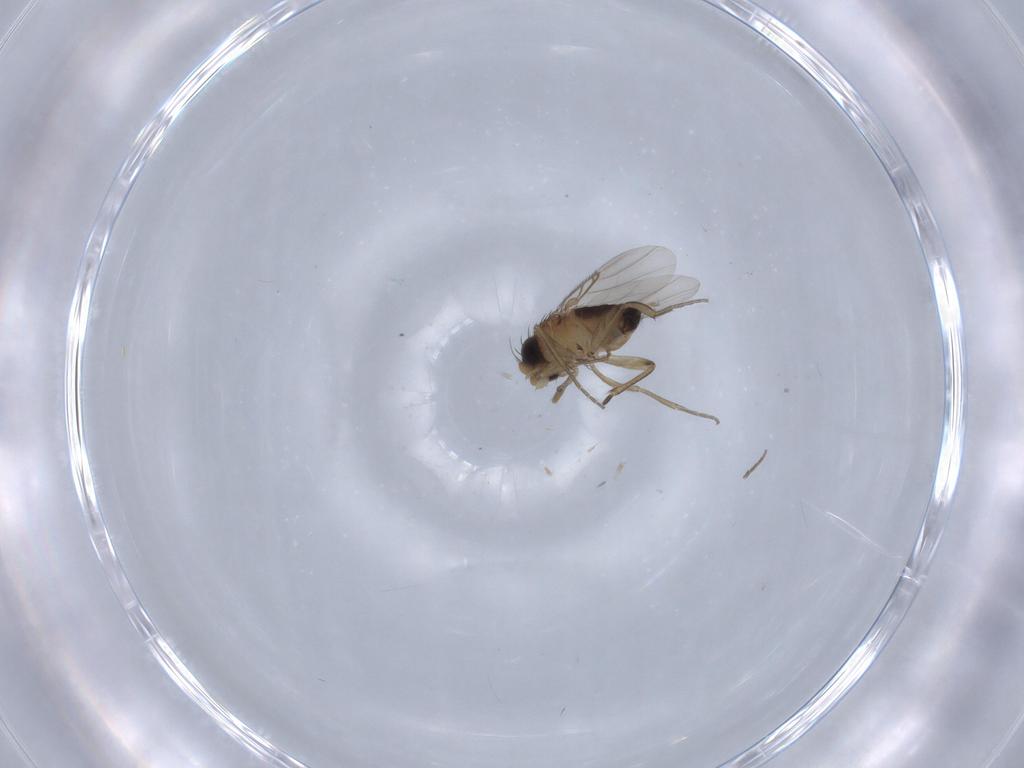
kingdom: Animalia
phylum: Arthropoda
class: Insecta
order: Diptera
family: Phoridae
